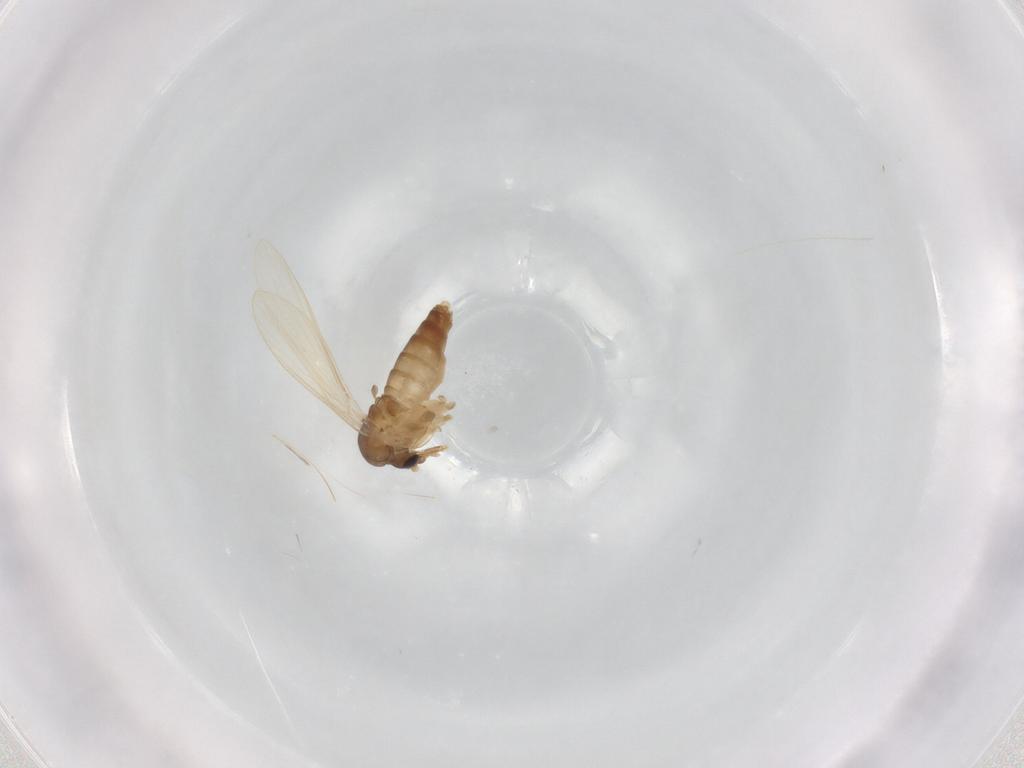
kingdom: Animalia
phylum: Arthropoda
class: Insecta
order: Diptera
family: Psychodidae
